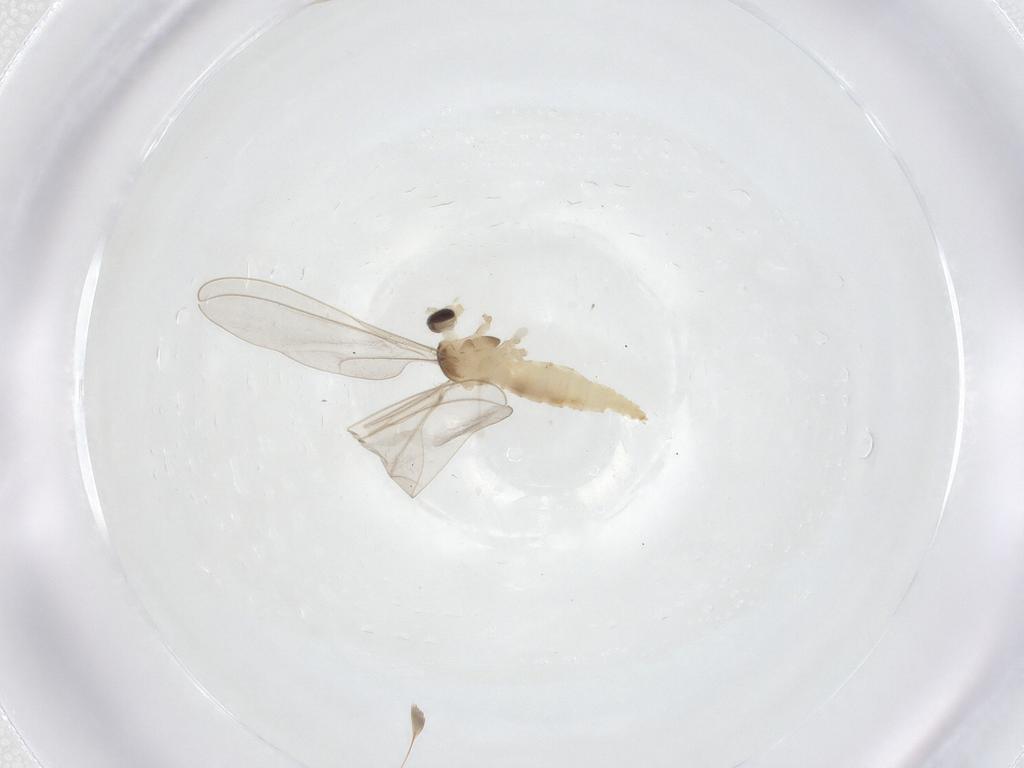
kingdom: Animalia
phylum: Arthropoda
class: Insecta
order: Diptera
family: Cecidomyiidae
